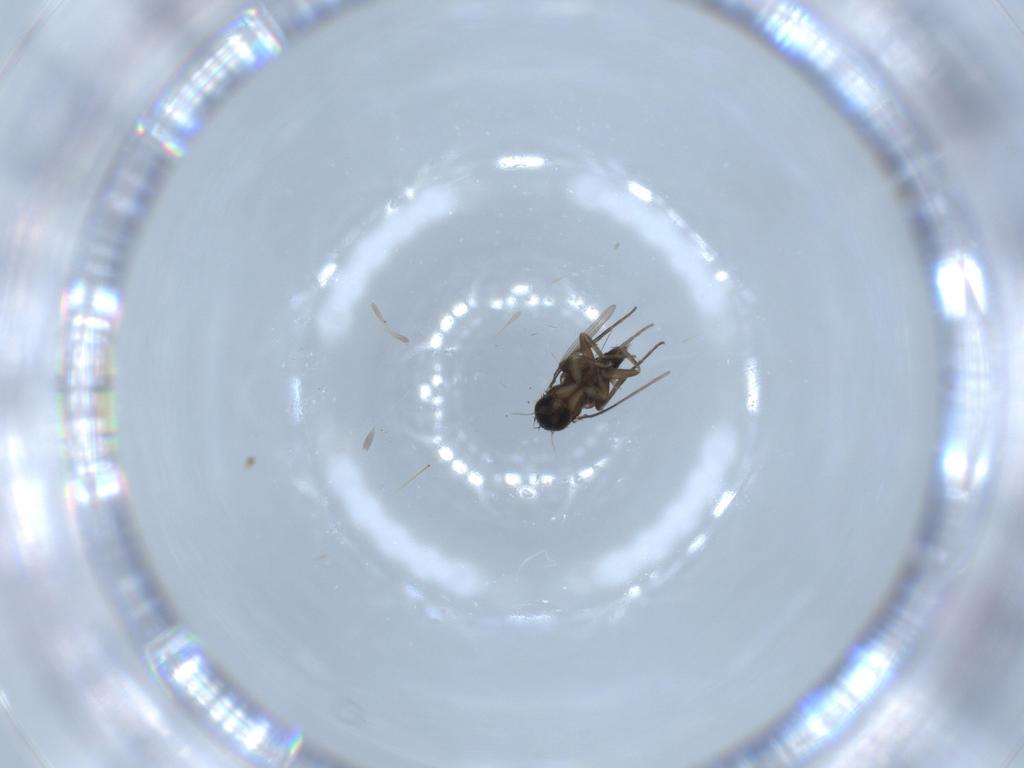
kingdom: Animalia
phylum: Arthropoda
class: Insecta
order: Diptera
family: Phoridae
